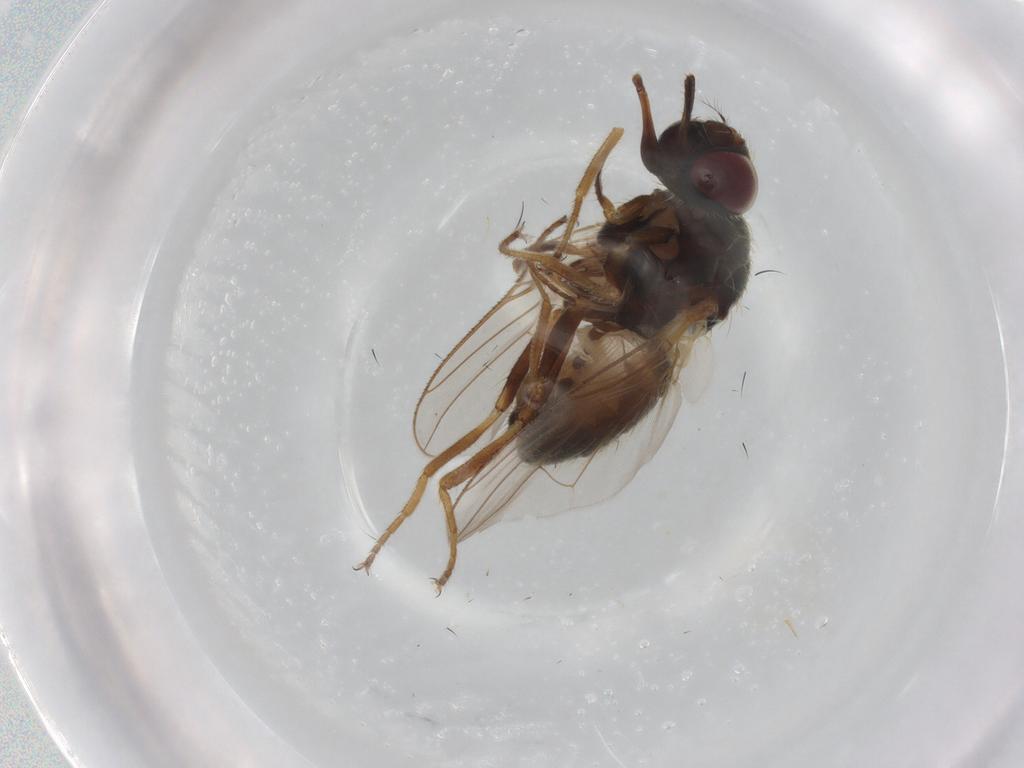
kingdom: Animalia
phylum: Arthropoda
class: Insecta
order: Diptera
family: Muscidae
